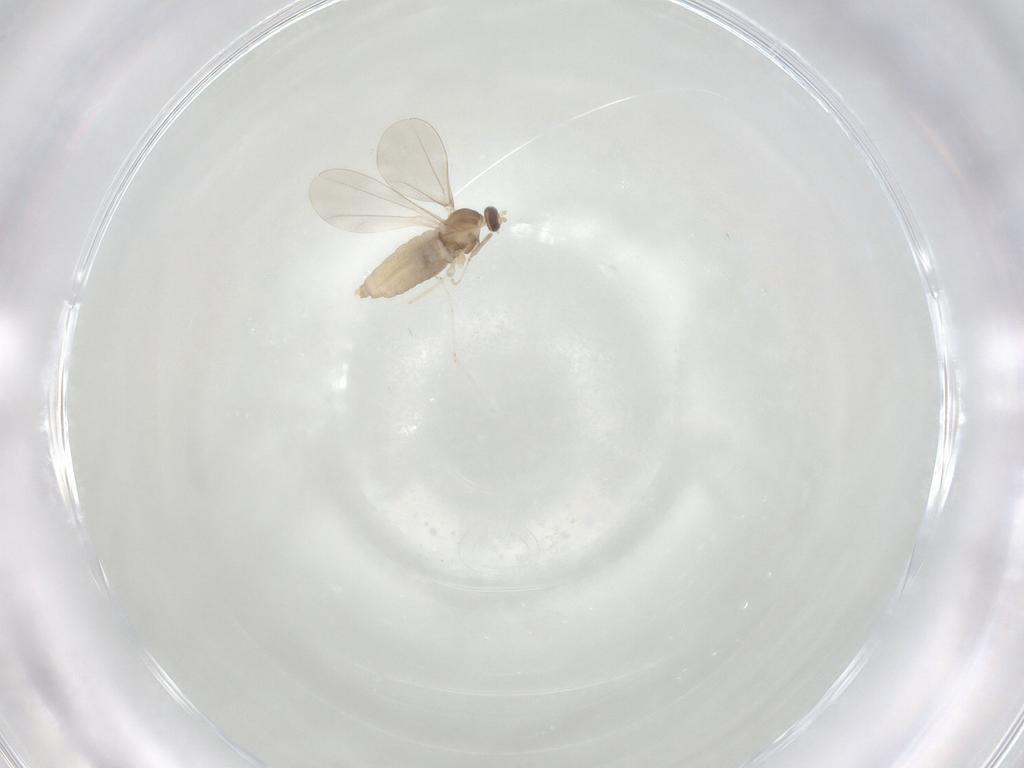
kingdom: Animalia
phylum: Arthropoda
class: Insecta
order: Diptera
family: Cecidomyiidae
